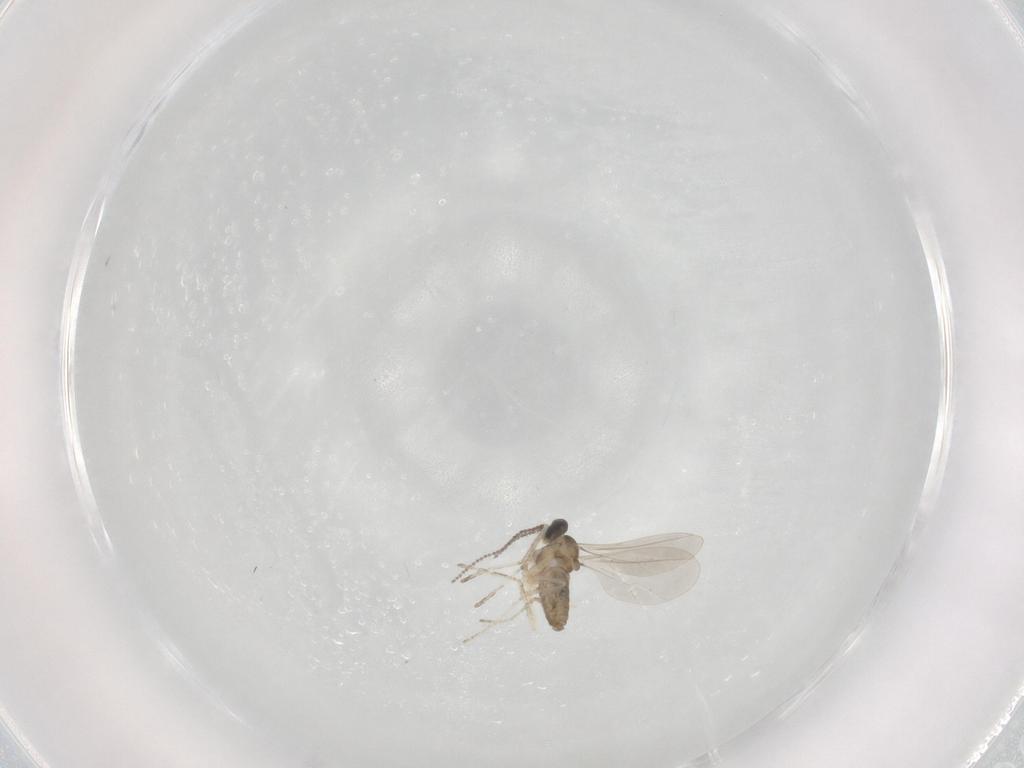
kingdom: Animalia
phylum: Arthropoda
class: Insecta
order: Diptera
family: Cecidomyiidae
